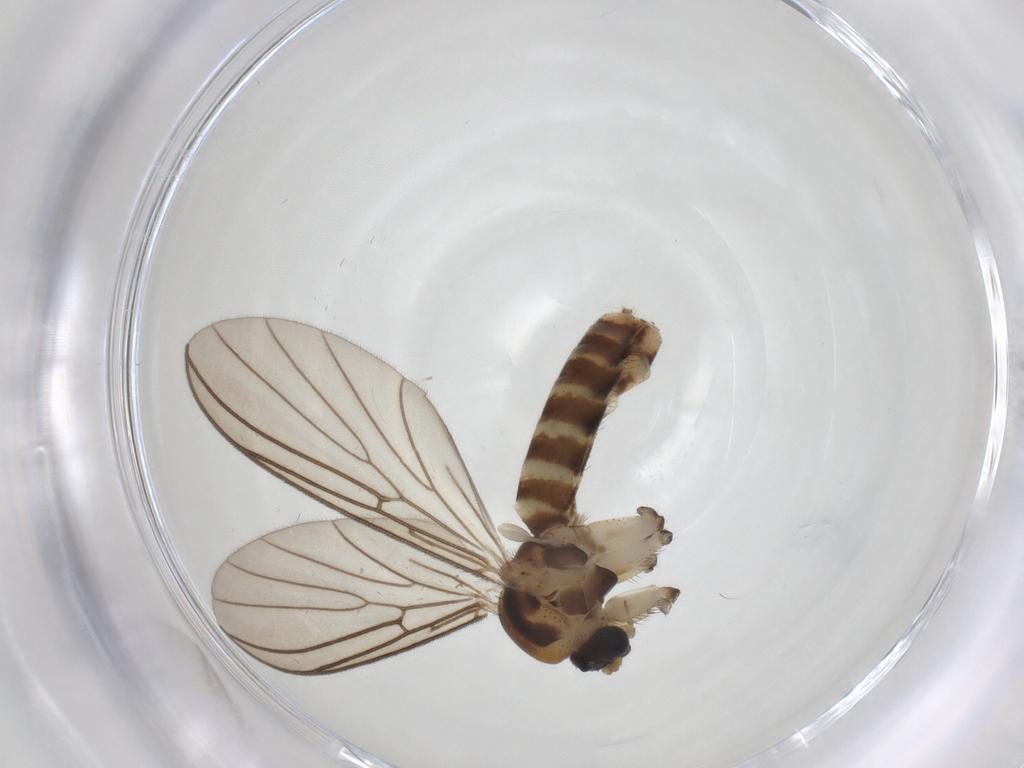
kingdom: Animalia
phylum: Arthropoda
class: Insecta
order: Diptera
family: Mycetophilidae
